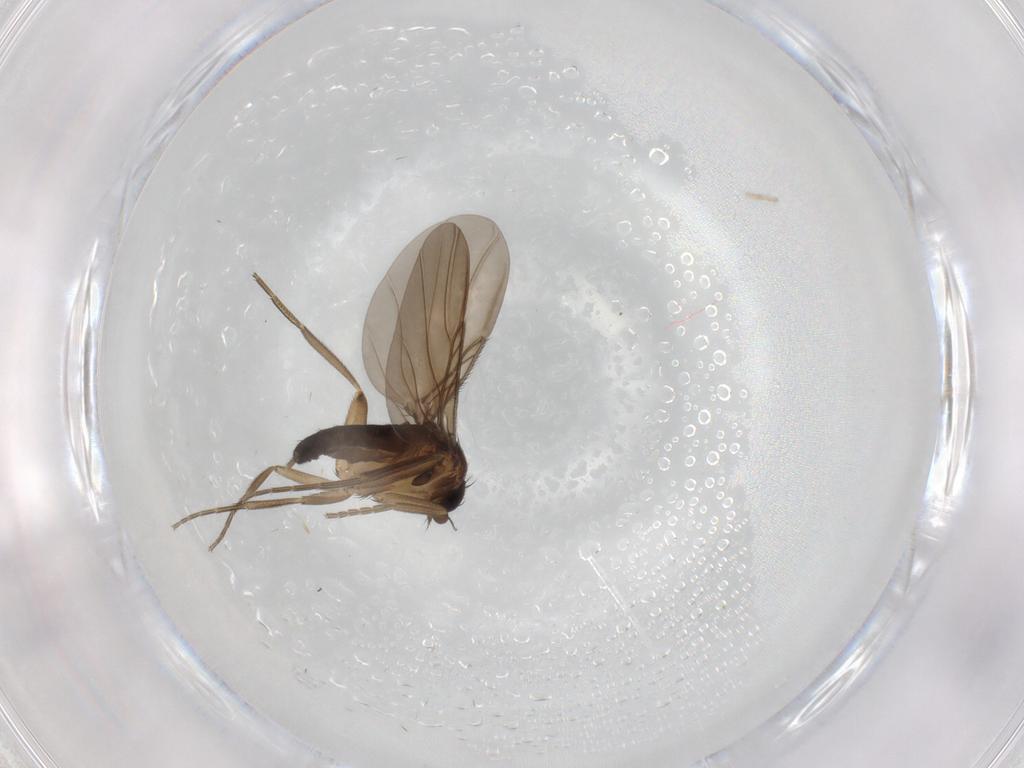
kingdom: Animalia
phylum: Arthropoda
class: Insecta
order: Diptera
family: Phoridae
